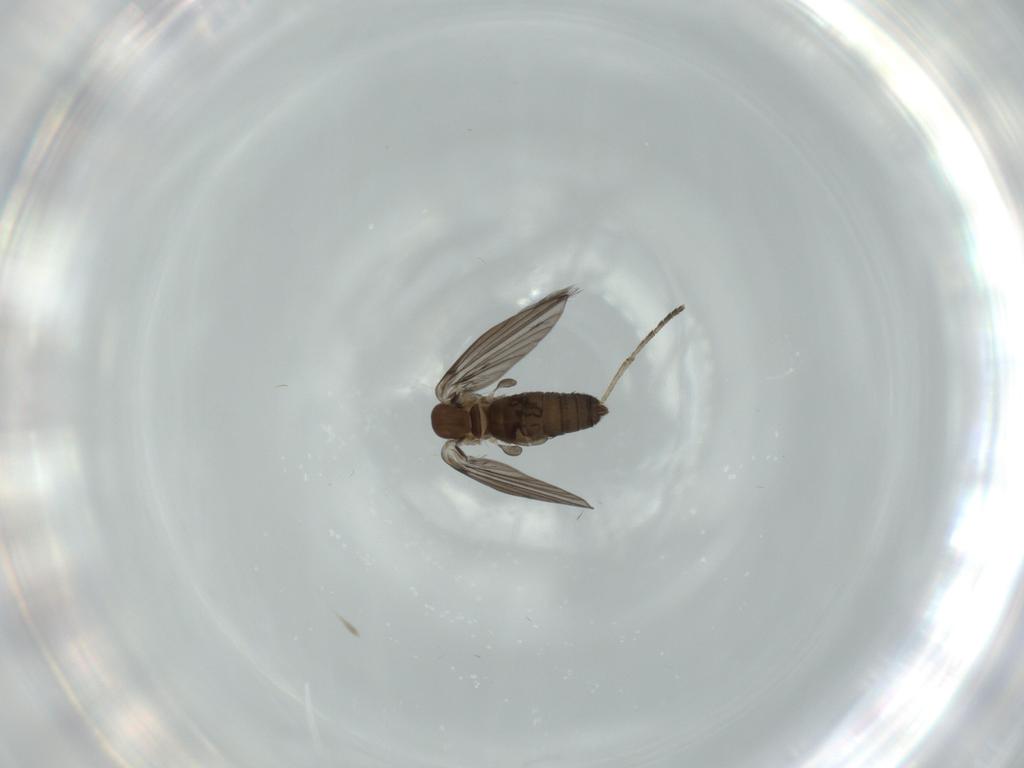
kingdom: Animalia
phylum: Arthropoda
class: Insecta
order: Diptera
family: Psychodidae
